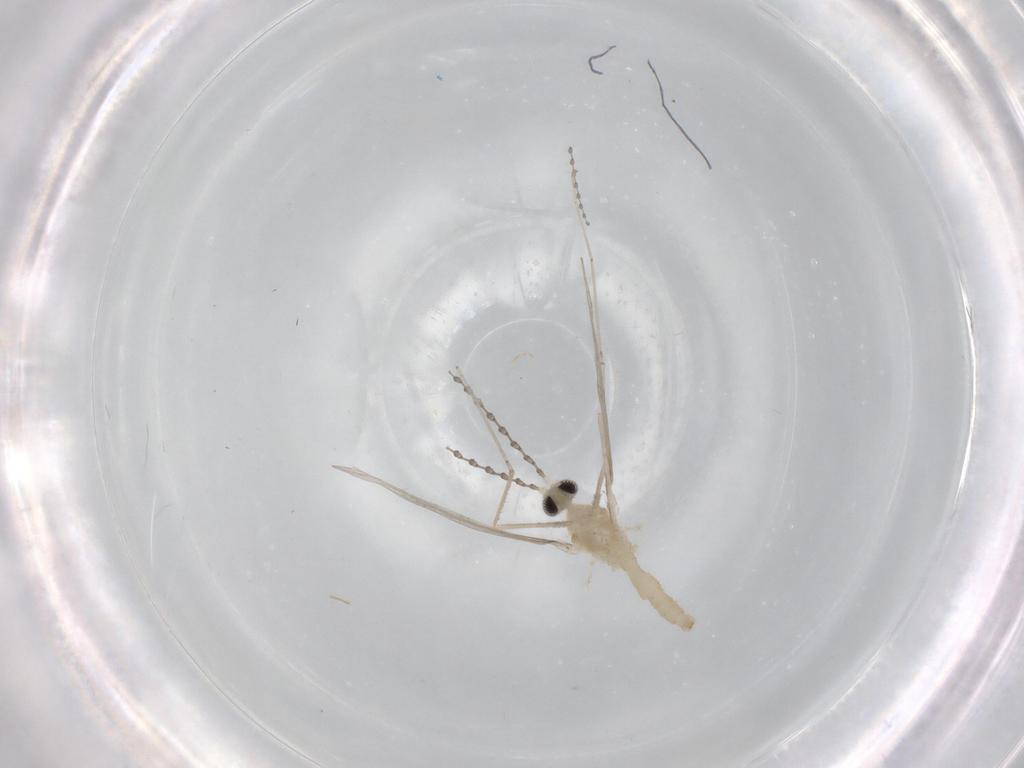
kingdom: Animalia
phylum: Arthropoda
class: Insecta
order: Diptera
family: Cecidomyiidae
